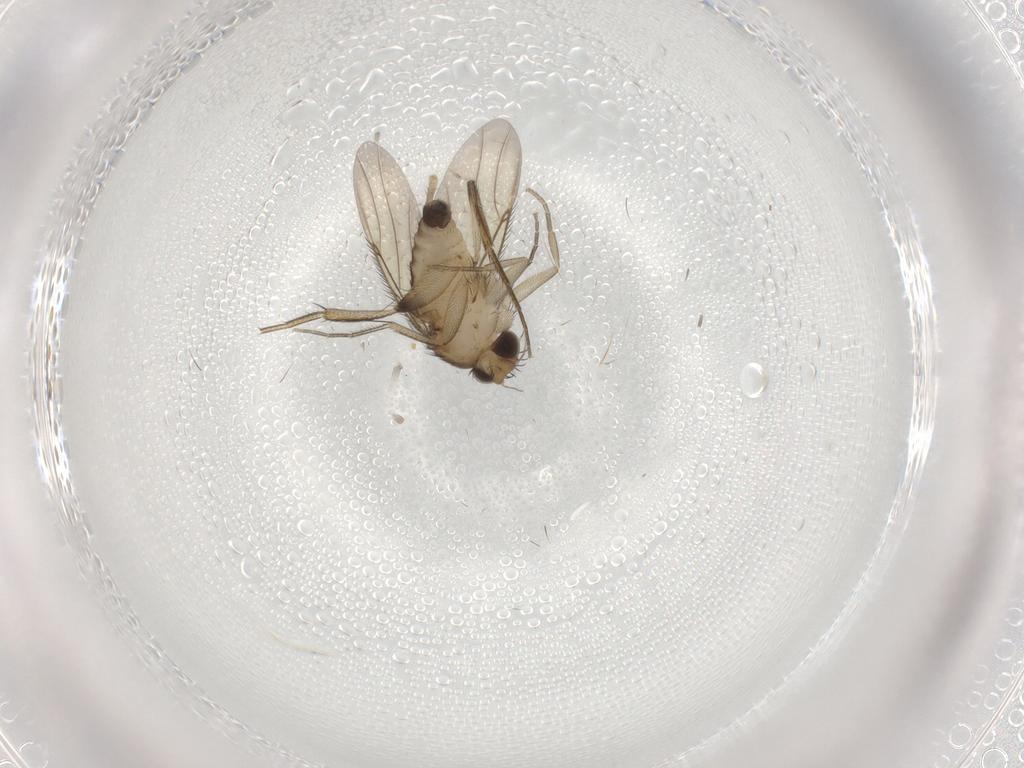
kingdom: Animalia
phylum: Arthropoda
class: Insecta
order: Diptera
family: Phoridae
